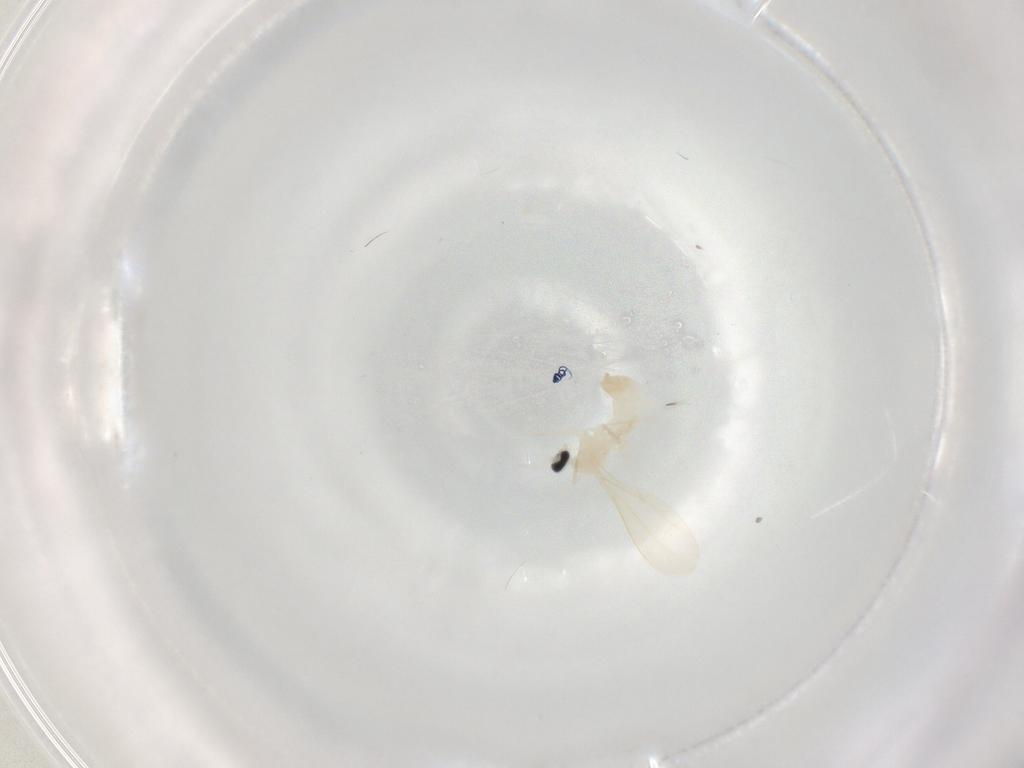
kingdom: Animalia
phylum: Arthropoda
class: Insecta
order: Diptera
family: Cecidomyiidae
